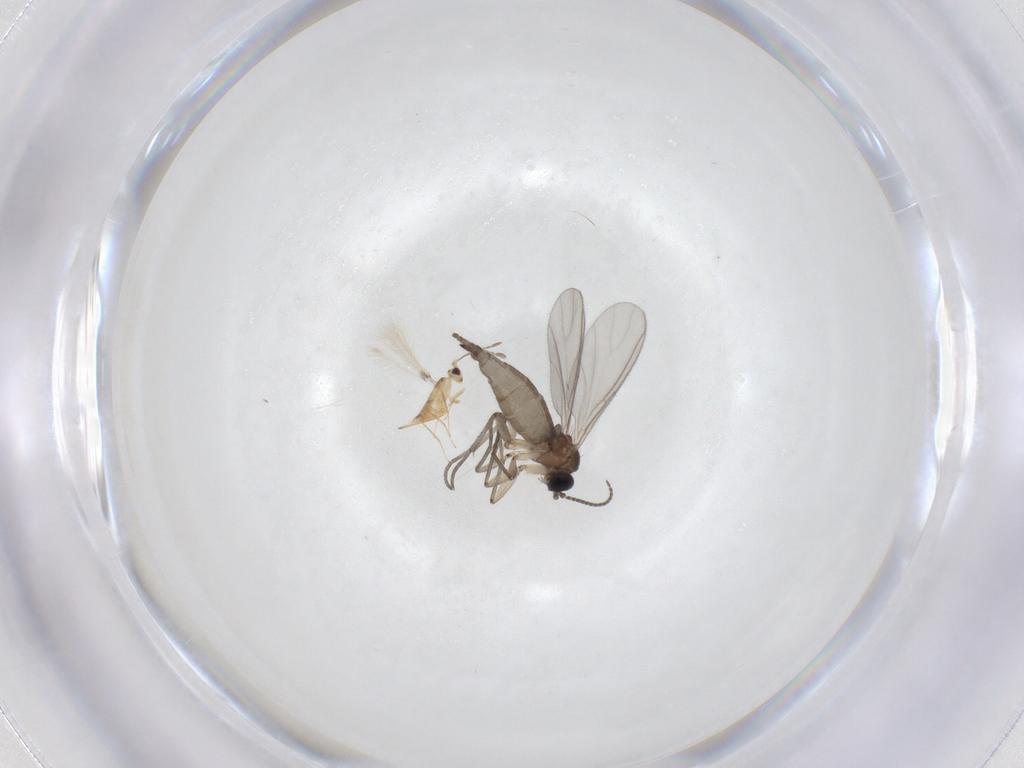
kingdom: Animalia
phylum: Arthropoda
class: Insecta
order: Diptera
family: Sciaridae
